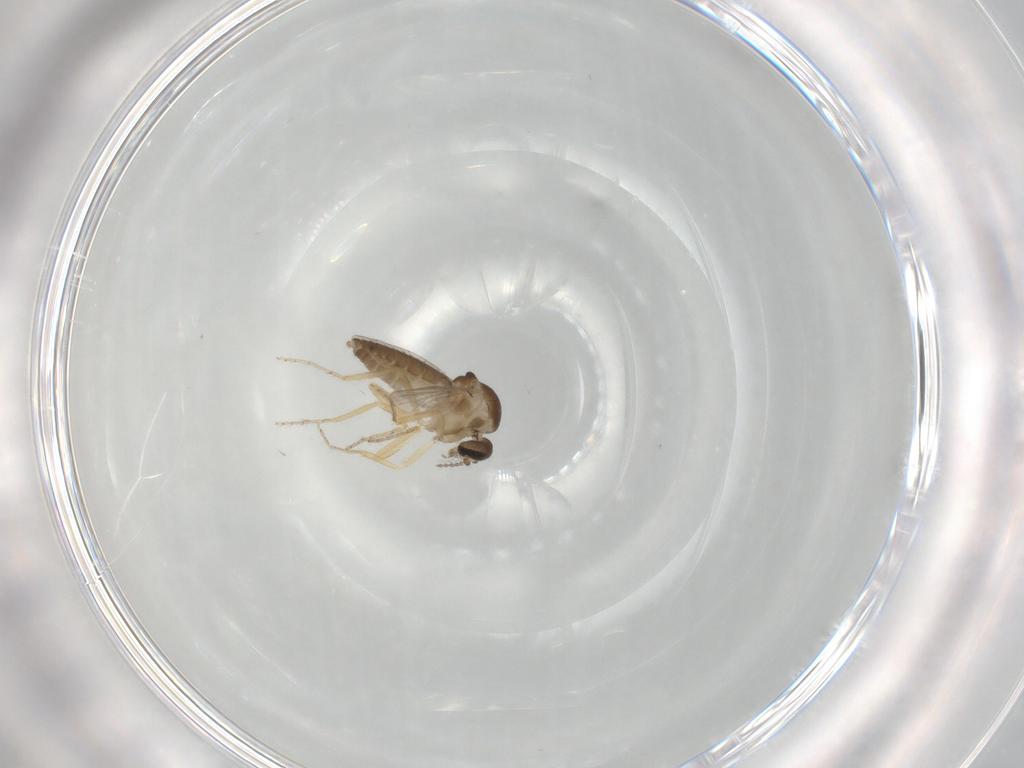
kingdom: Animalia
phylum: Arthropoda
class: Insecta
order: Diptera
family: Ceratopogonidae
